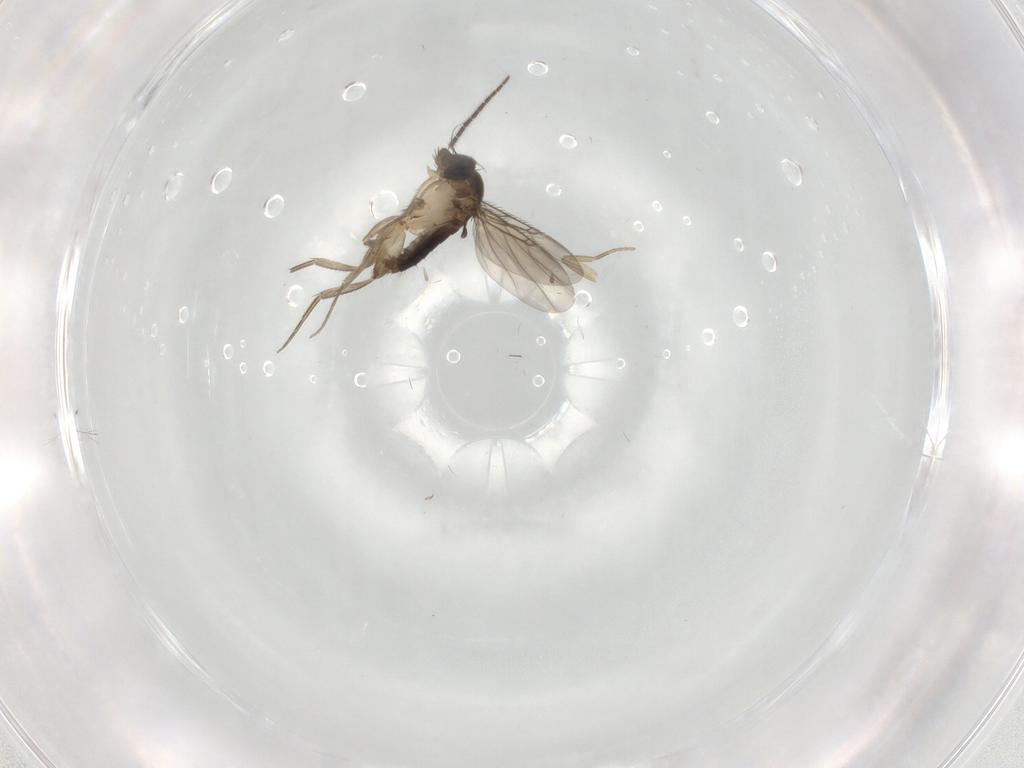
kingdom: Animalia
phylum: Arthropoda
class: Insecta
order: Diptera
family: Phoridae
